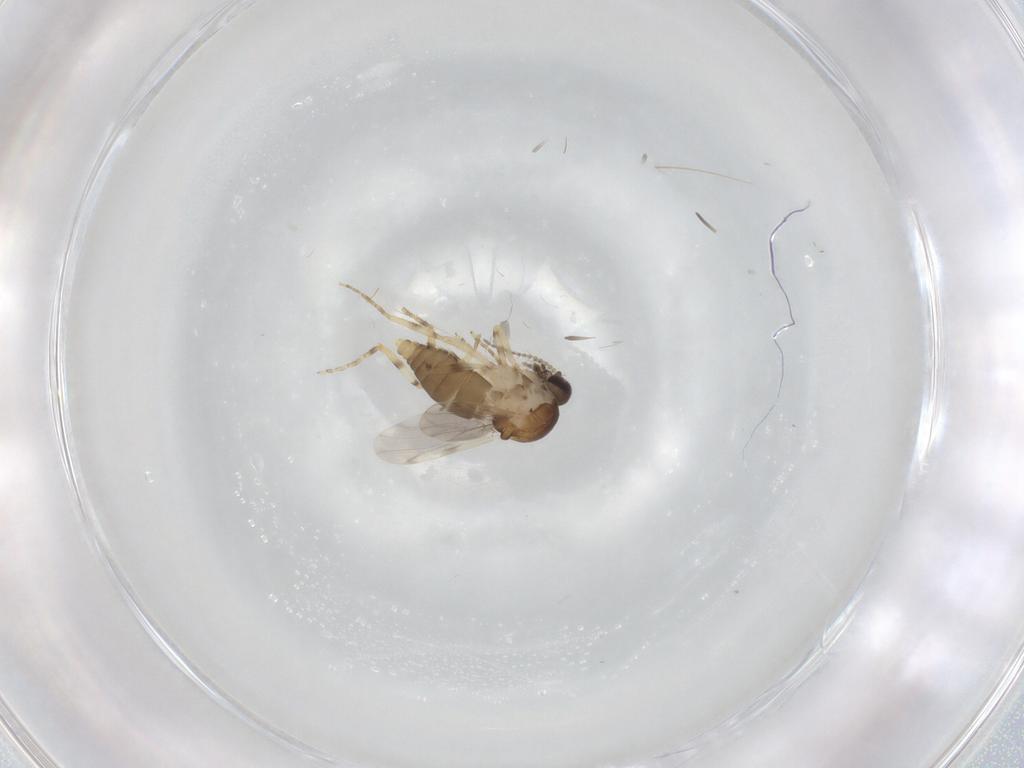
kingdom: Animalia
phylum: Arthropoda
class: Insecta
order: Diptera
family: Ceratopogonidae
